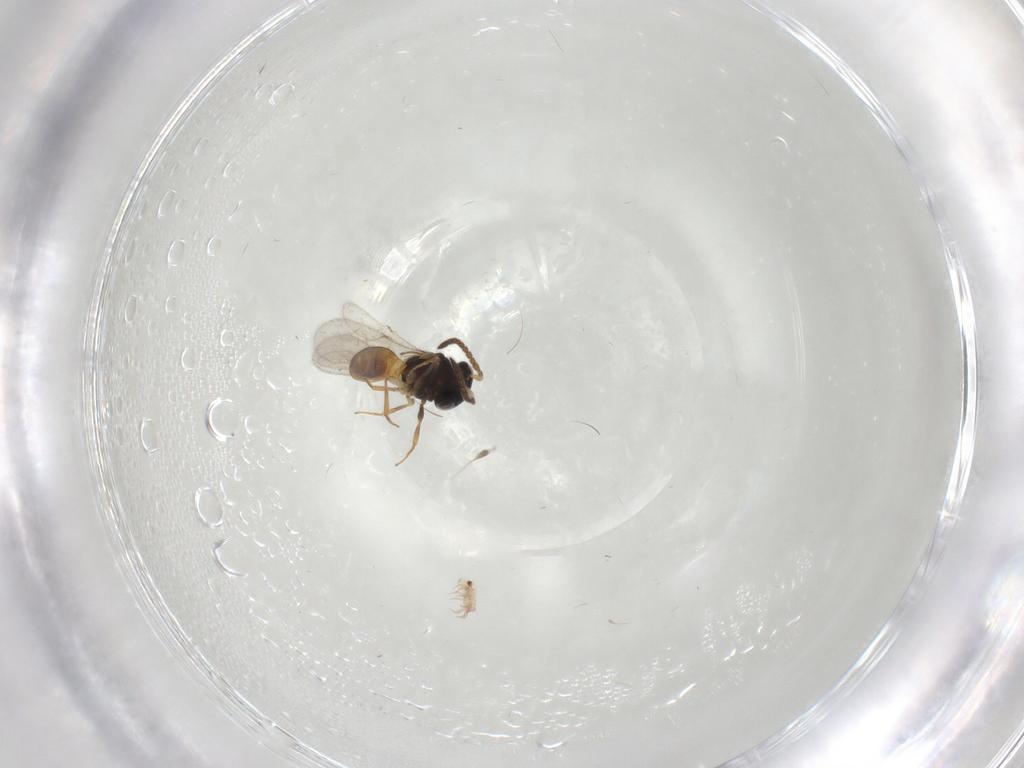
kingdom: Animalia
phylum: Arthropoda
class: Insecta
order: Hymenoptera
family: Scelionidae
